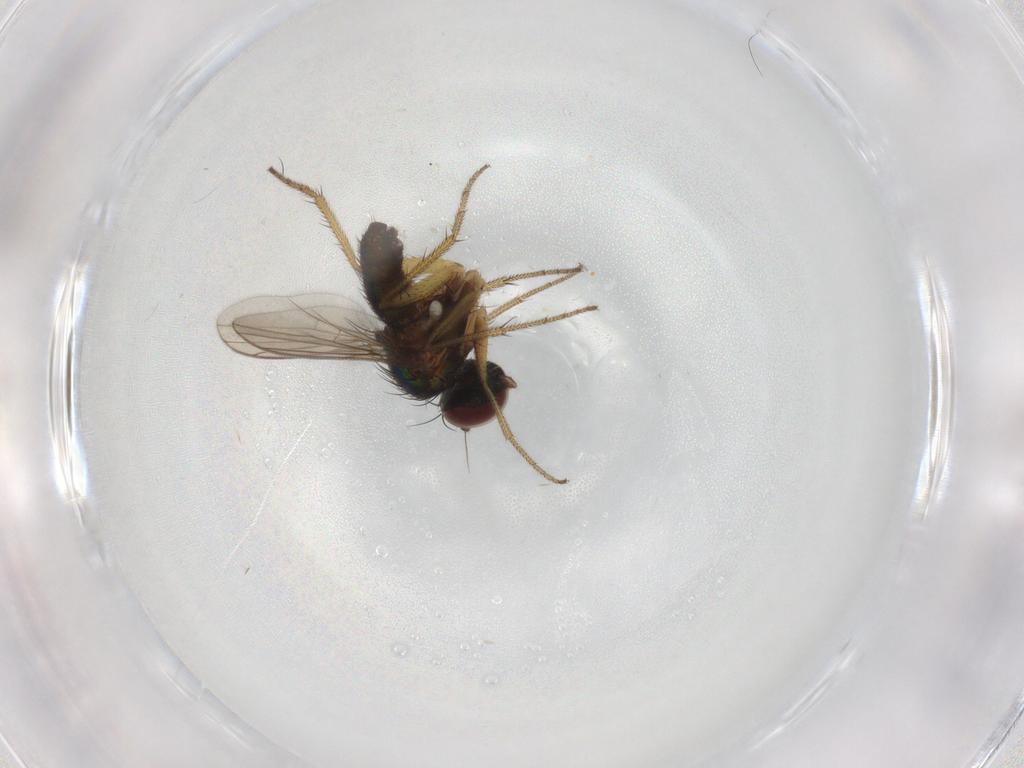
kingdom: Animalia
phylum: Arthropoda
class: Insecta
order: Diptera
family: Dolichopodidae
